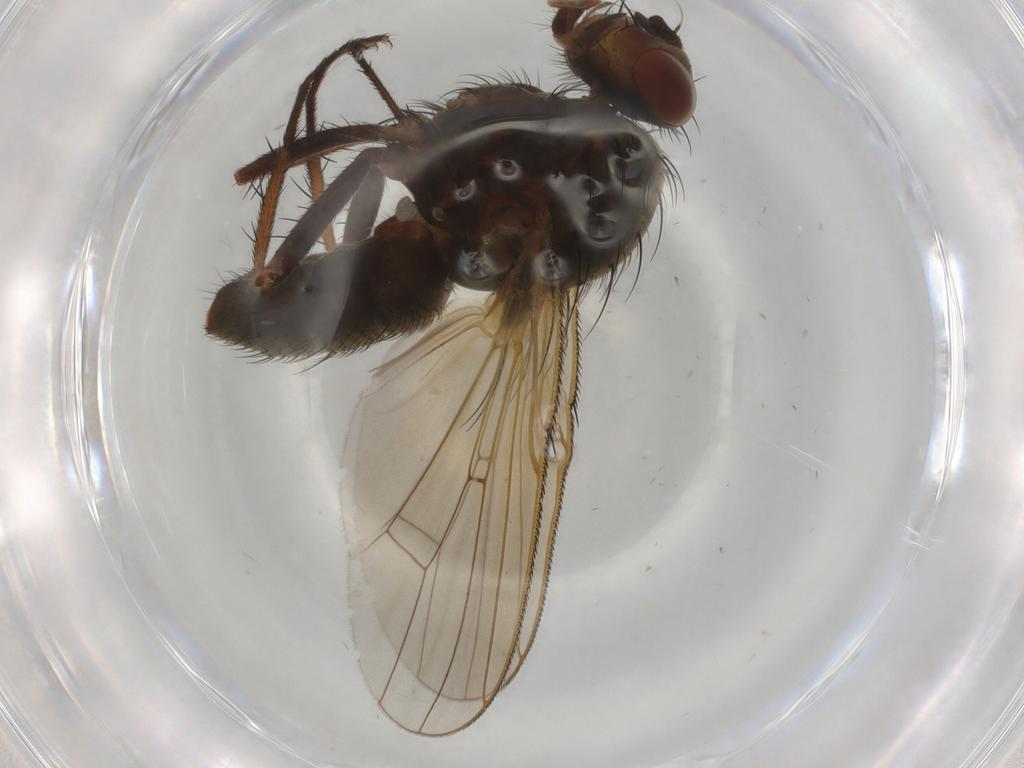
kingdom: Animalia
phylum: Arthropoda
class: Insecta
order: Diptera
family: Anthomyiidae
